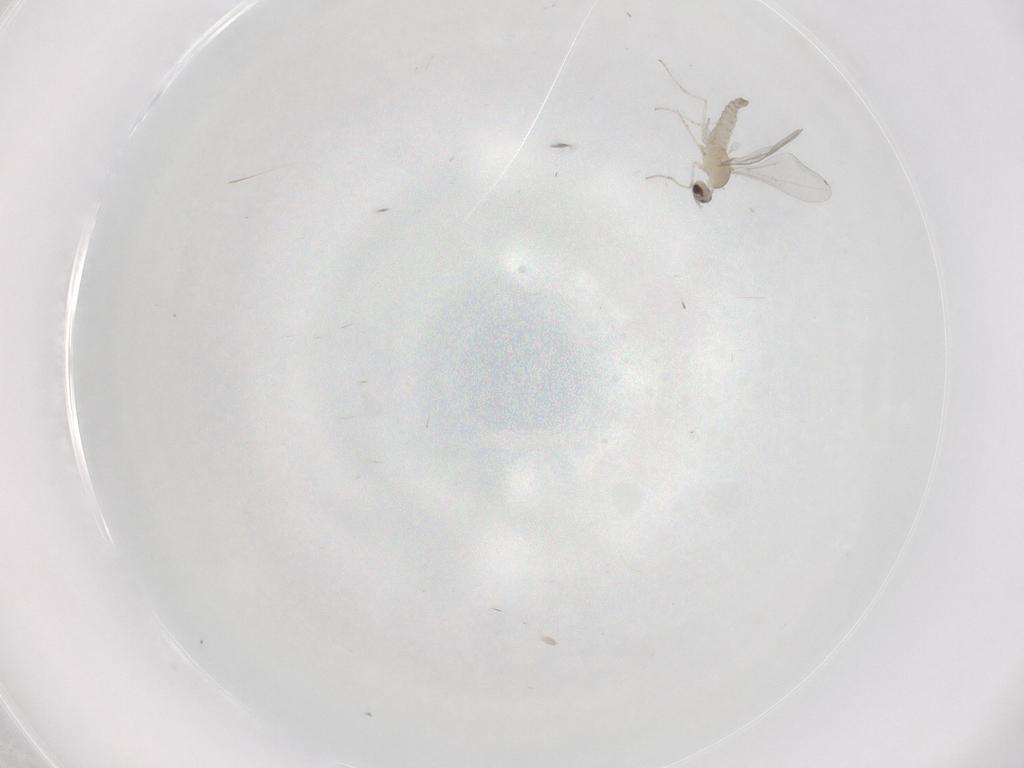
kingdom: Animalia
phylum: Arthropoda
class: Insecta
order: Diptera
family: Cecidomyiidae
